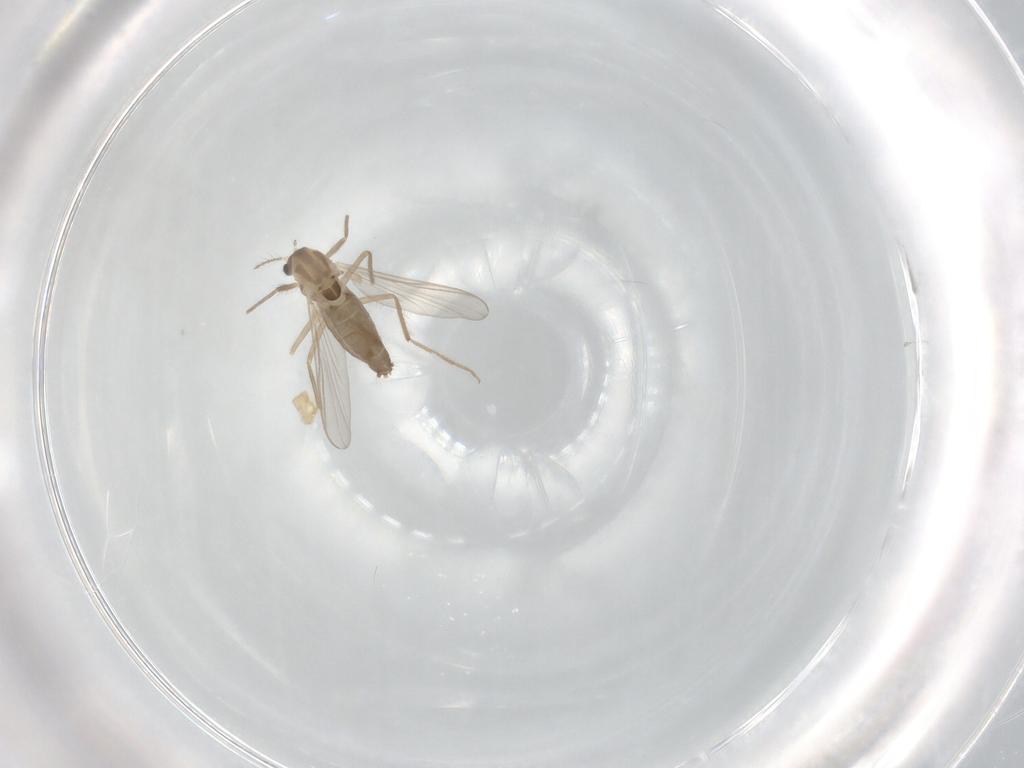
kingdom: Animalia
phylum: Arthropoda
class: Insecta
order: Diptera
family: Chironomidae
